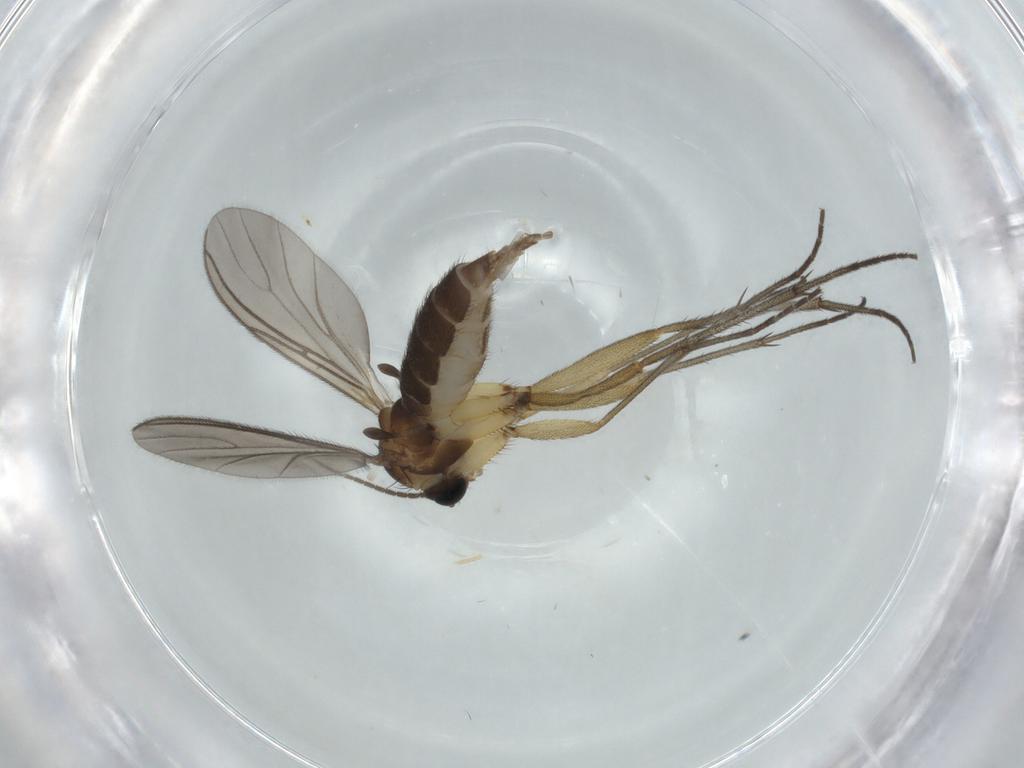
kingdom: Animalia
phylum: Arthropoda
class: Insecta
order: Diptera
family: Sciaridae
